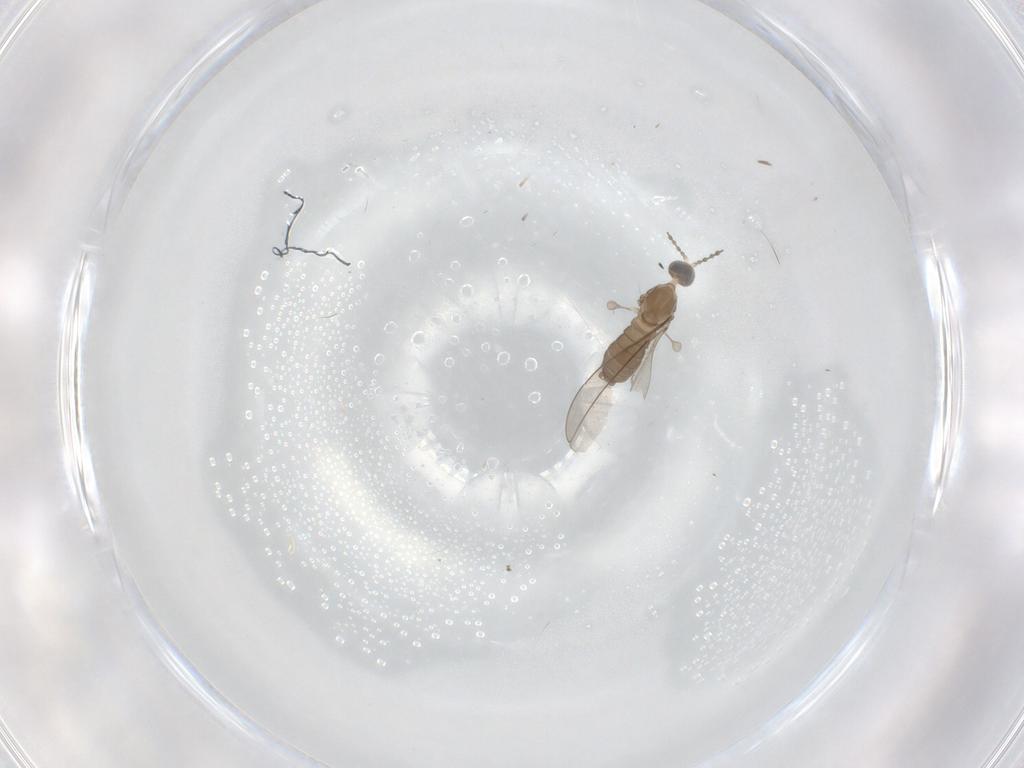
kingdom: Animalia
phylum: Arthropoda
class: Insecta
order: Diptera
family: Cecidomyiidae
